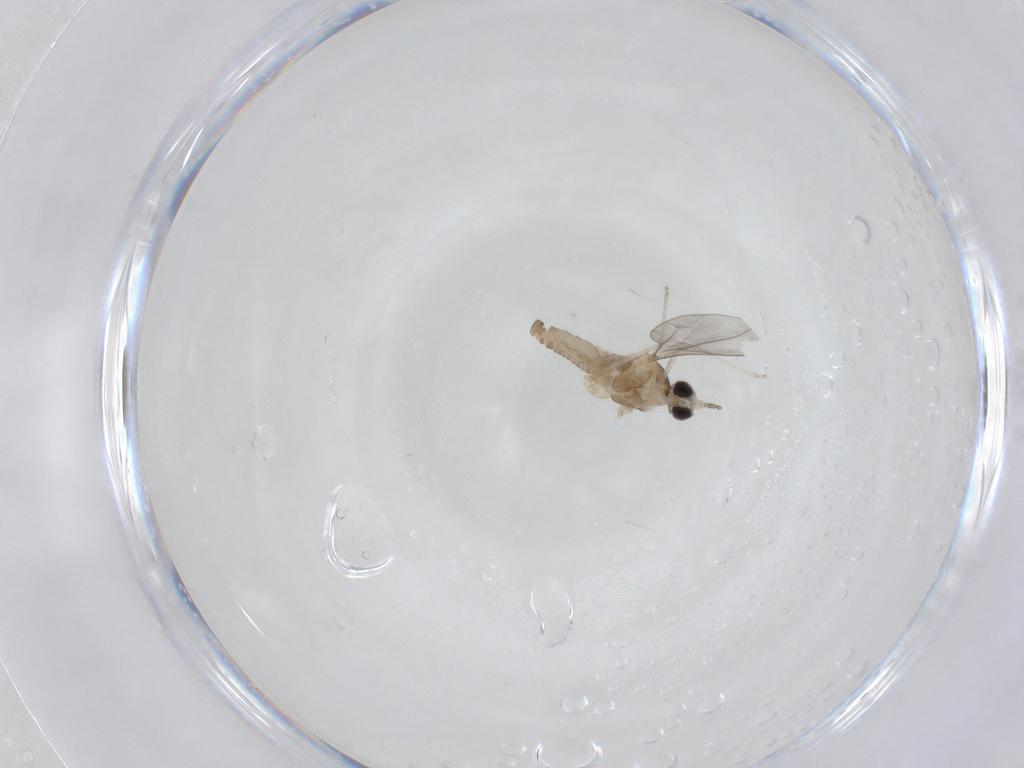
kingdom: Animalia
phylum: Arthropoda
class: Insecta
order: Diptera
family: Cecidomyiidae
